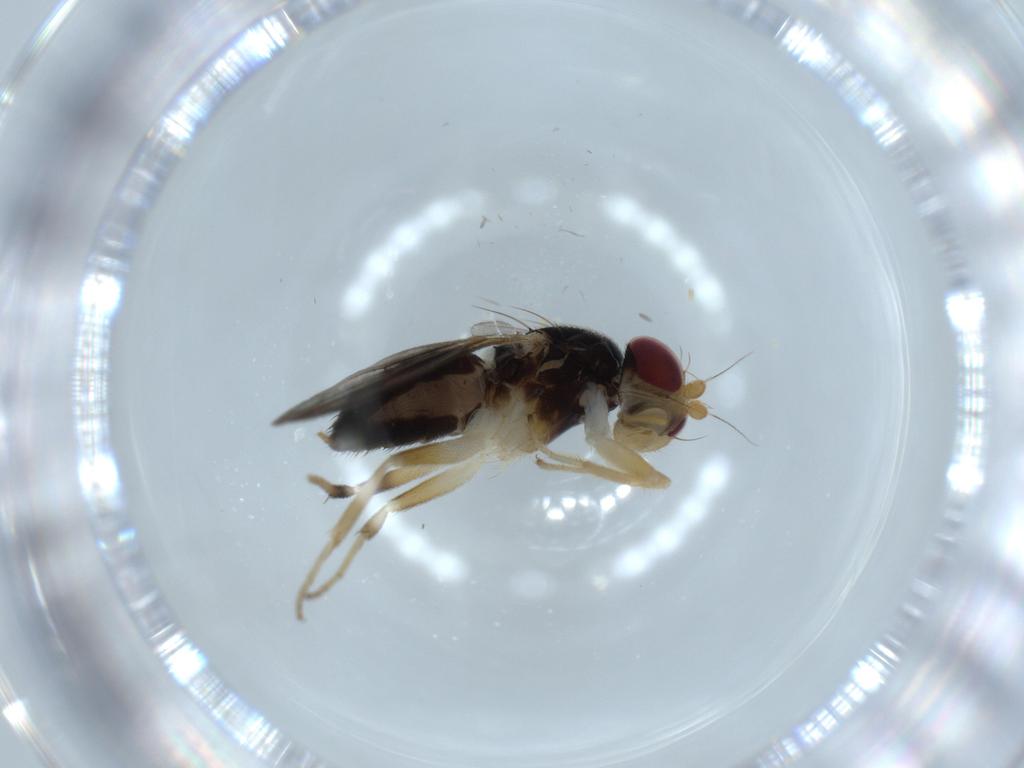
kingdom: Animalia
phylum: Arthropoda
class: Insecta
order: Diptera
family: Clusiidae
